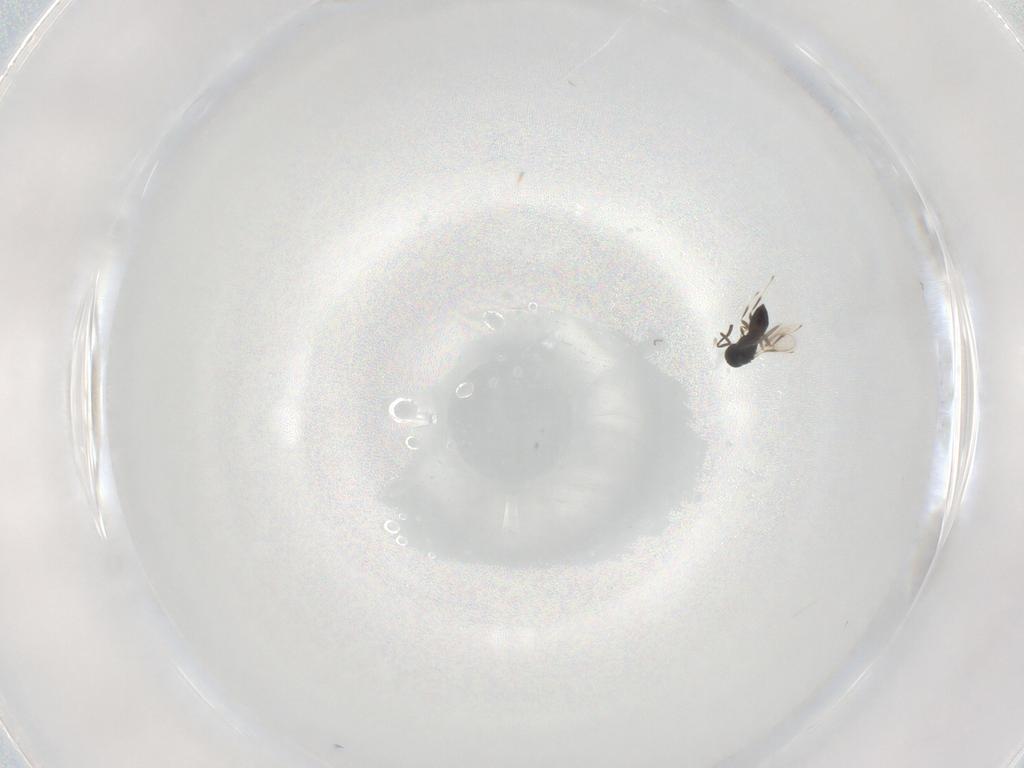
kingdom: Animalia
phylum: Arthropoda
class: Insecta
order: Hymenoptera
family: Scelionidae
